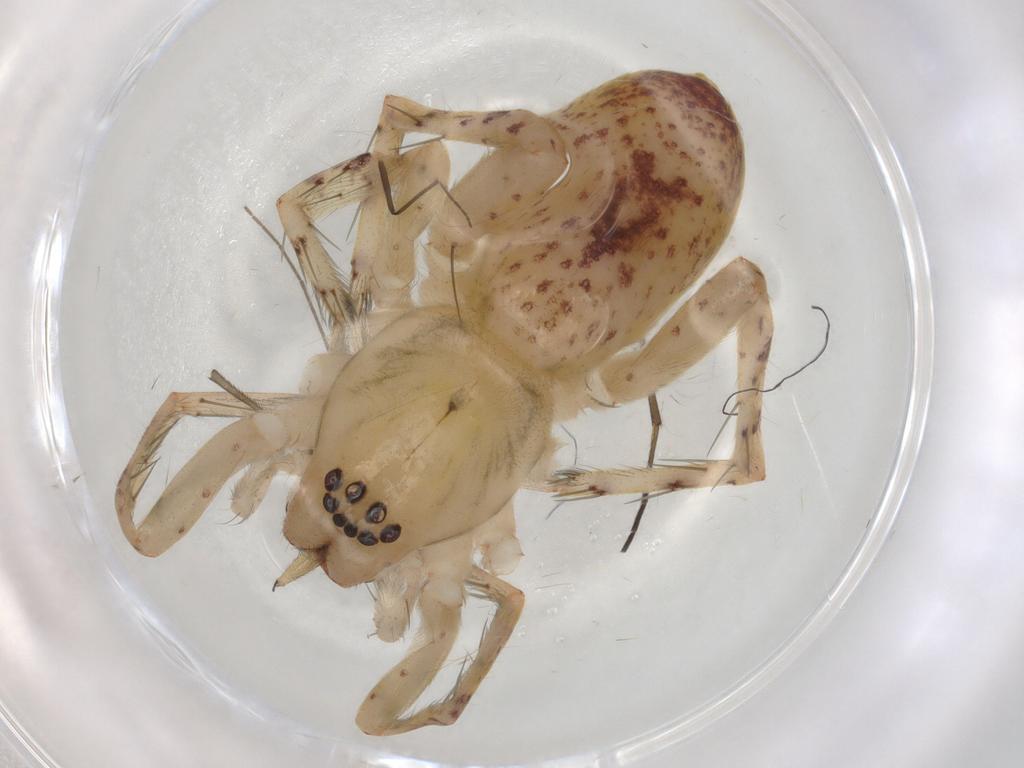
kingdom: Animalia
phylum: Arthropoda
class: Arachnida
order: Araneae
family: Anyphaenidae
